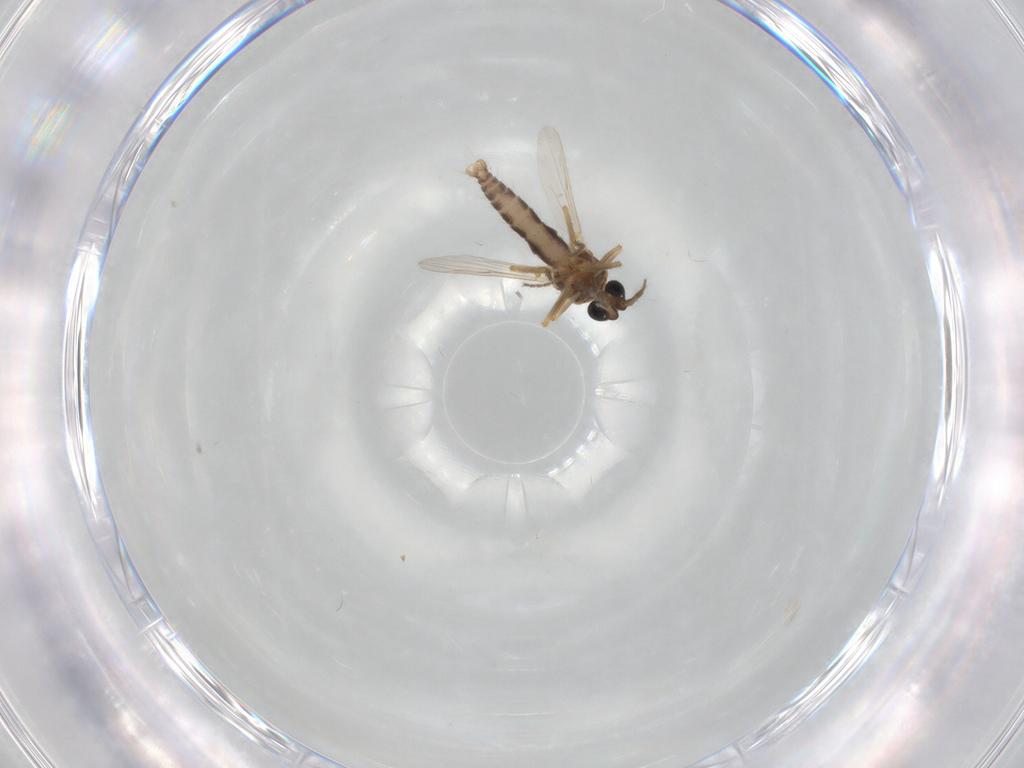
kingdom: Animalia
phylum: Arthropoda
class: Insecta
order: Diptera
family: Ceratopogonidae
